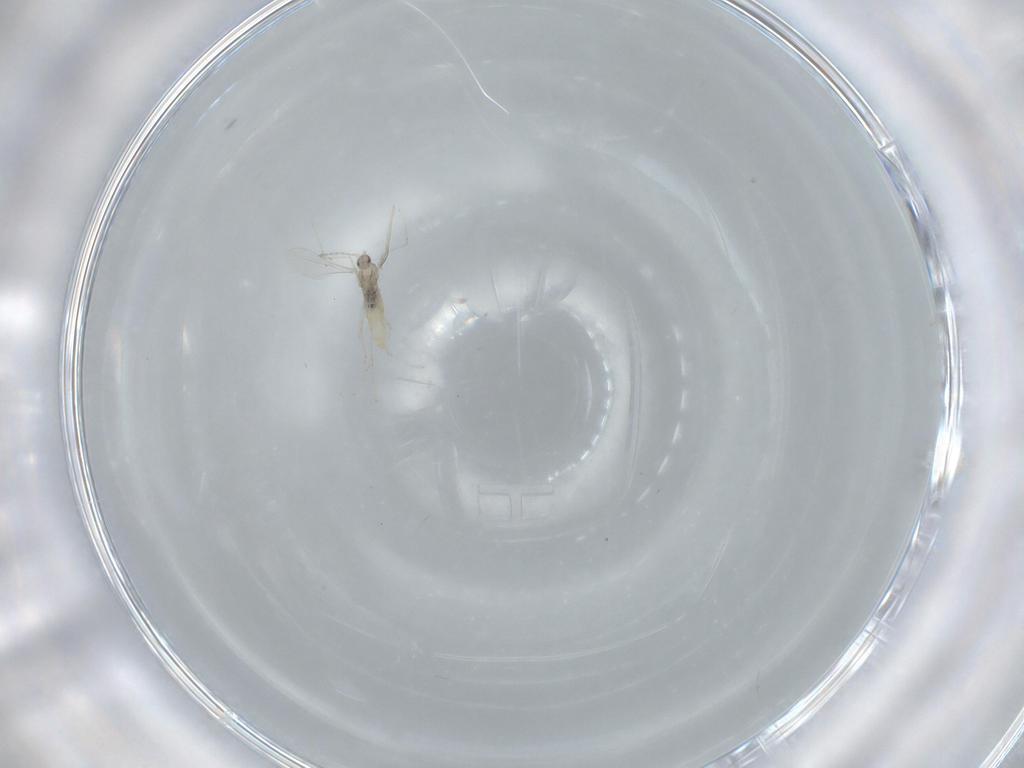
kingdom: Animalia
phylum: Arthropoda
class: Insecta
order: Diptera
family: Cecidomyiidae
